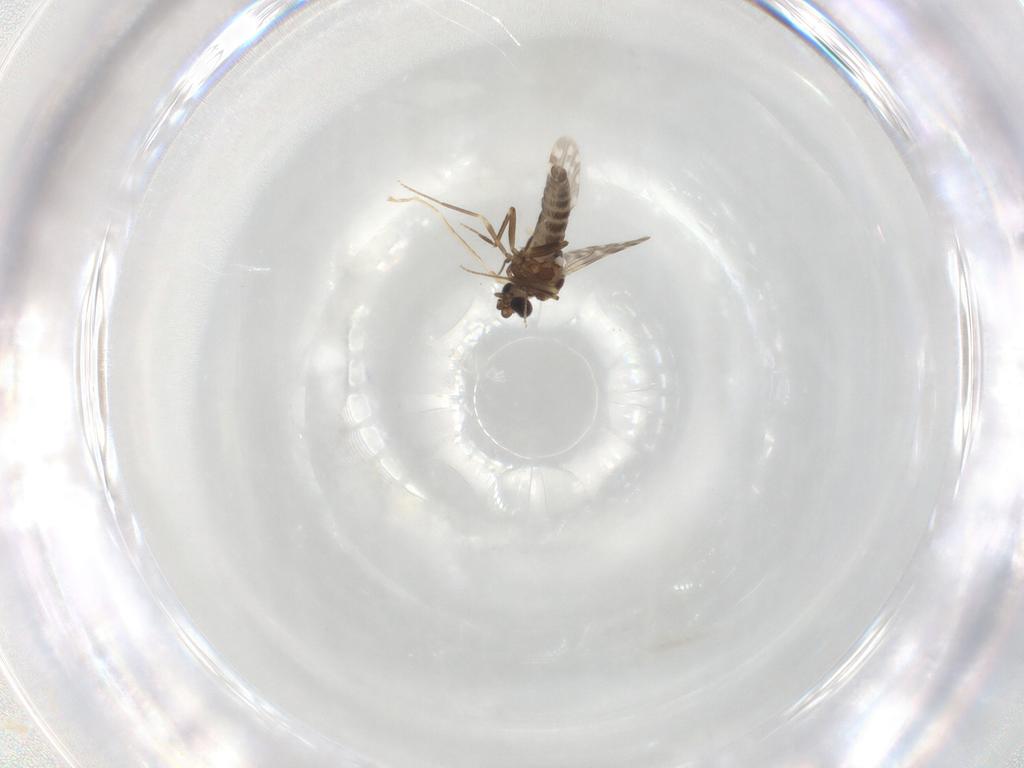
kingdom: Animalia
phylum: Arthropoda
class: Insecta
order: Diptera
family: Ceratopogonidae
